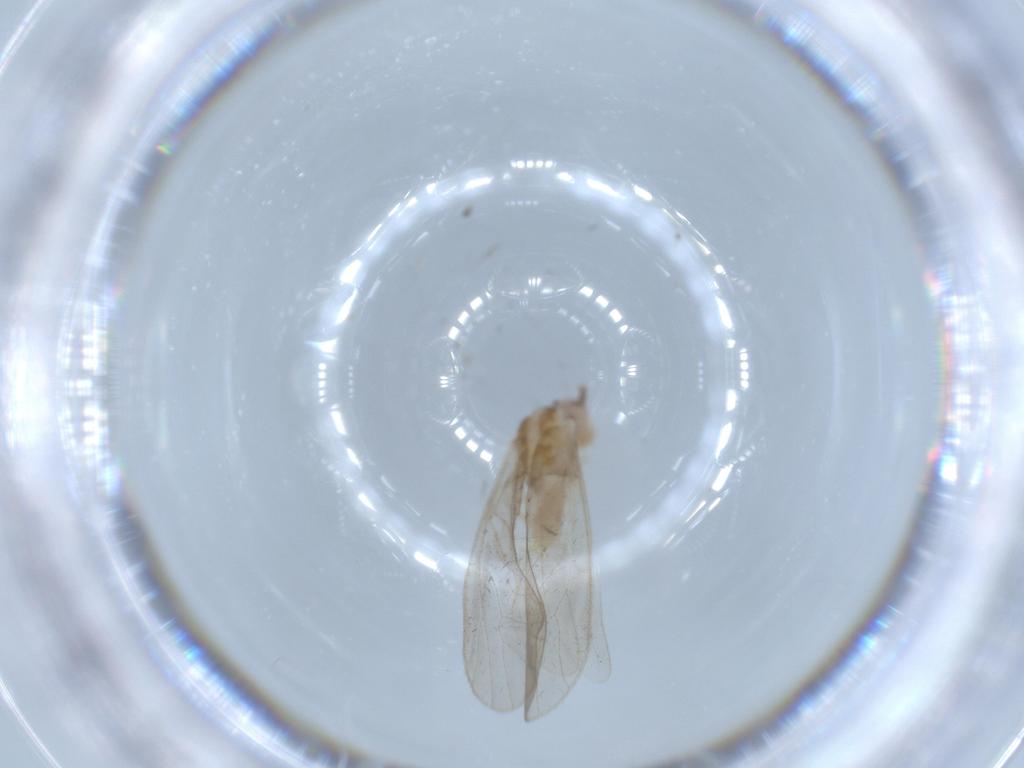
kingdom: Animalia
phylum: Arthropoda
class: Insecta
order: Psocodea
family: Caeciliusidae
